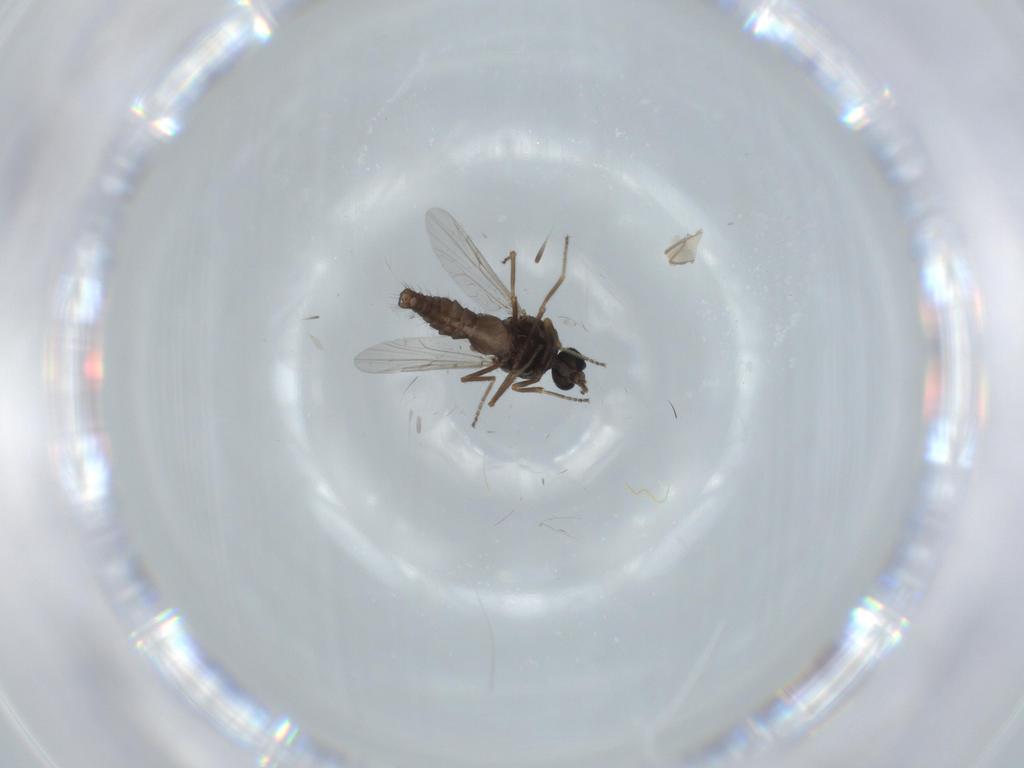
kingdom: Animalia
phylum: Arthropoda
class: Insecta
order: Diptera
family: Ceratopogonidae
